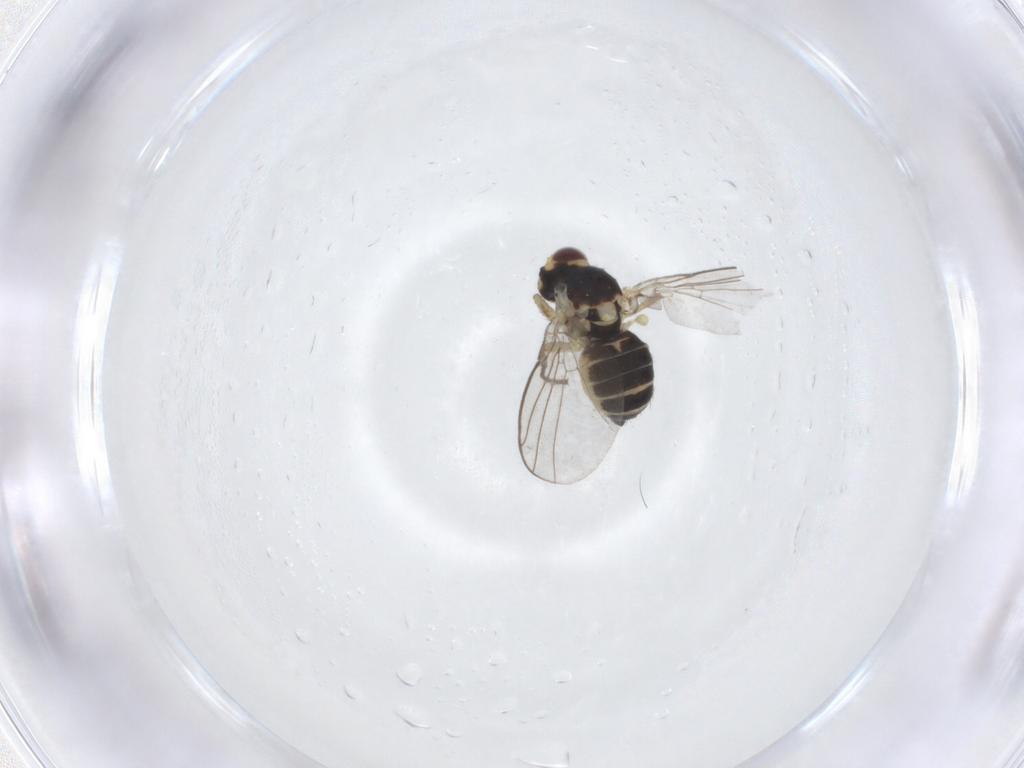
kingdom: Animalia
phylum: Arthropoda
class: Insecta
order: Diptera
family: Agromyzidae
